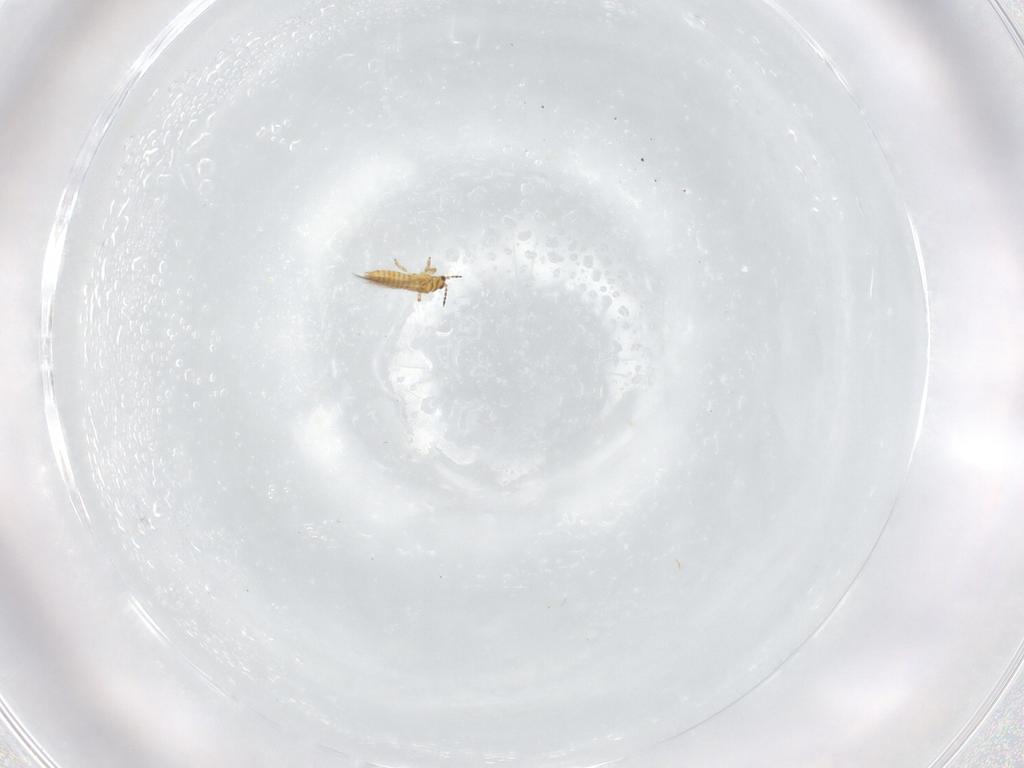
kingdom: Animalia
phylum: Arthropoda
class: Insecta
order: Thysanoptera
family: Thripidae
